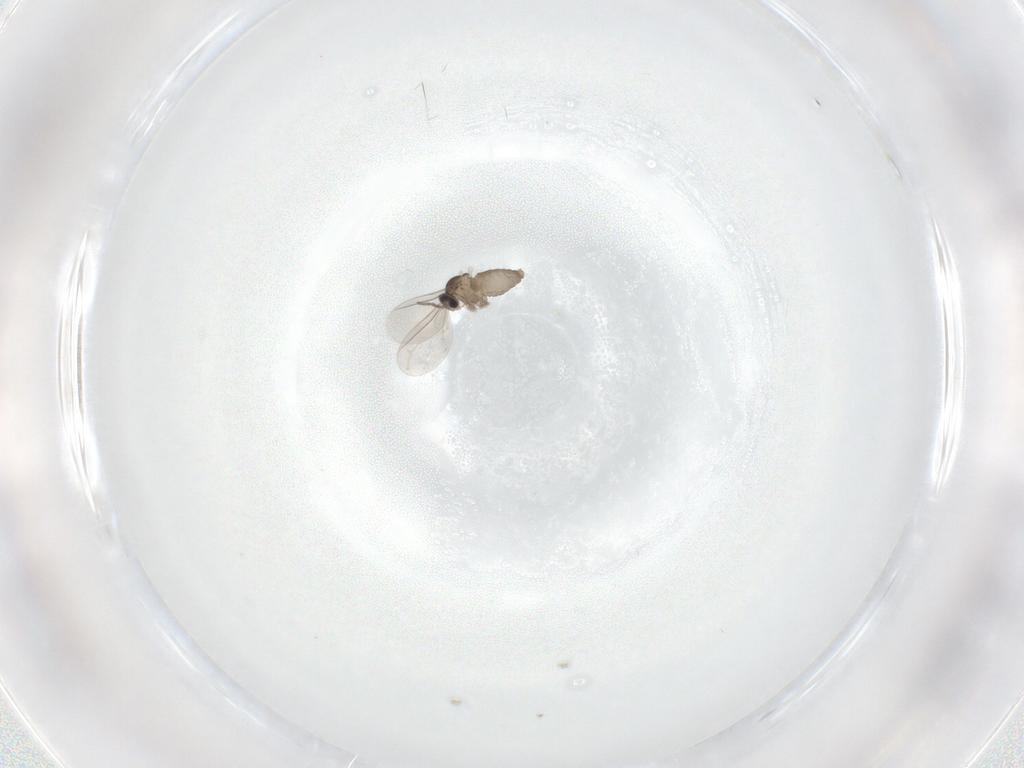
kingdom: Animalia
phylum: Arthropoda
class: Insecta
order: Diptera
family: Cecidomyiidae
